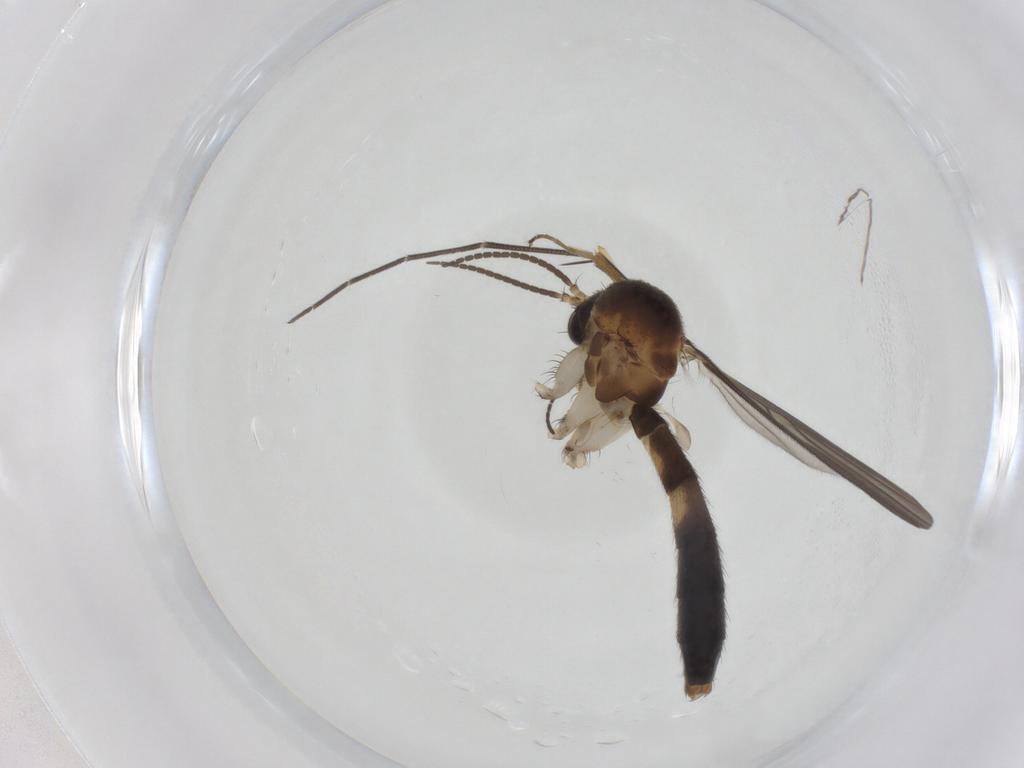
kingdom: Animalia
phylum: Arthropoda
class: Insecta
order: Diptera
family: Mycetophilidae
